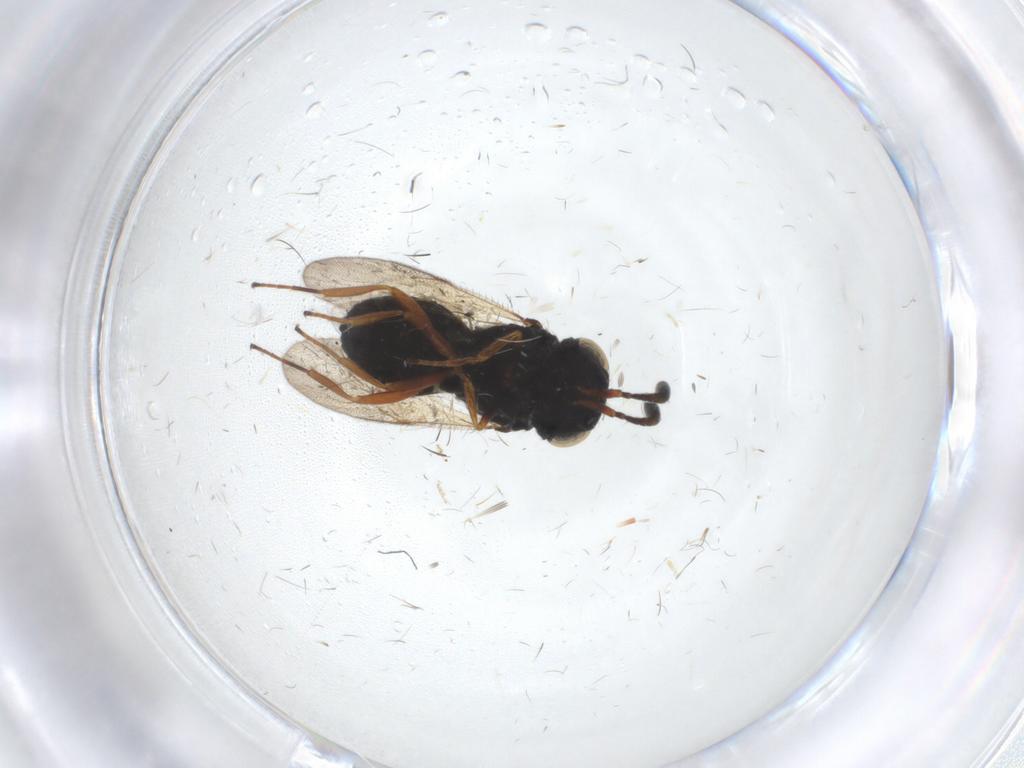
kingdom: Animalia
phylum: Arthropoda
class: Insecta
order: Hymenoptera
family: Scelionidae
